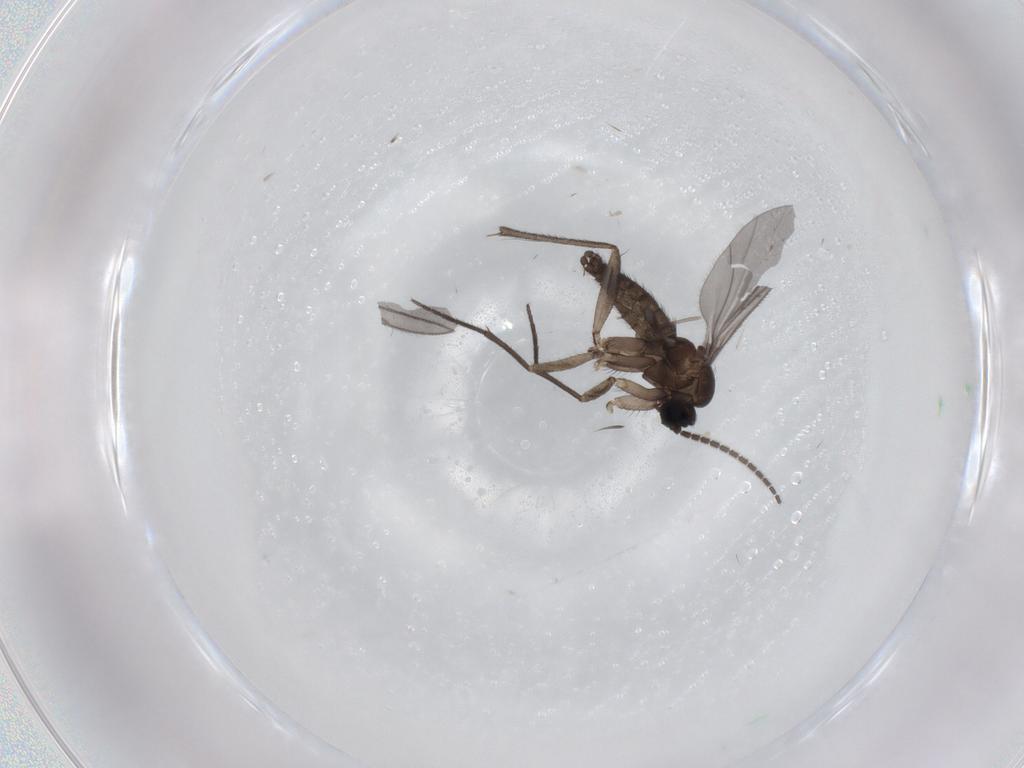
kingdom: Animalia
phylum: Arthropoda
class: Insecta
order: Diptera
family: Sciaridae
